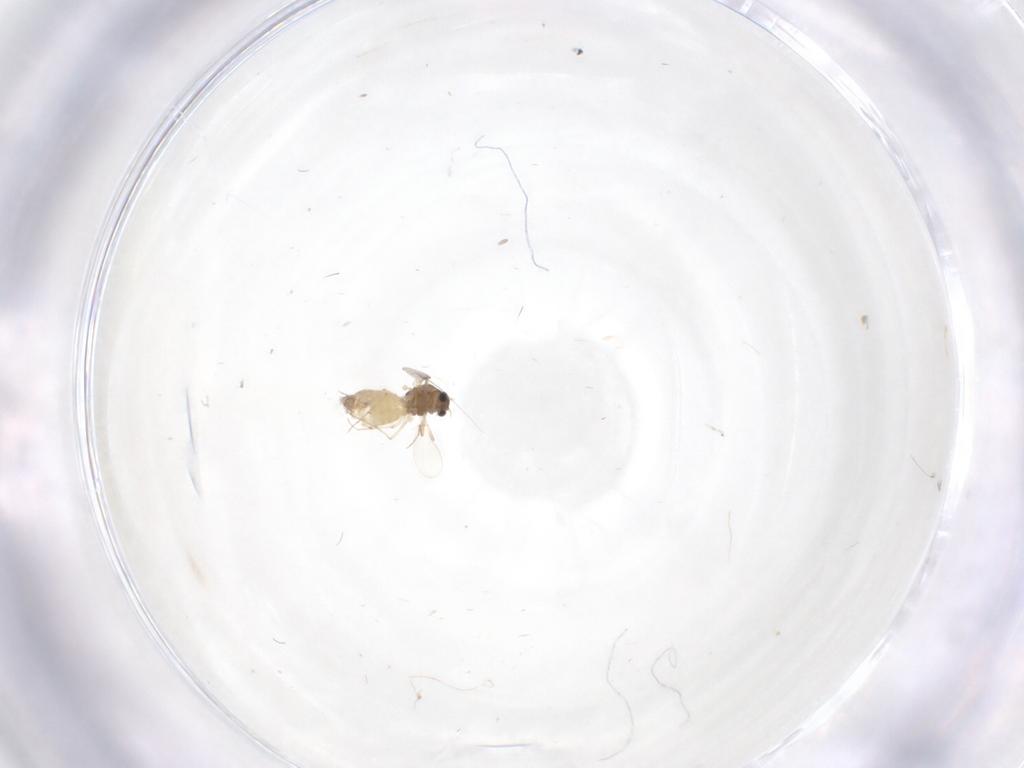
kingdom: Animalia
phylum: Arthropoda
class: Insecta
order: Diptera
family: Chironomidae
